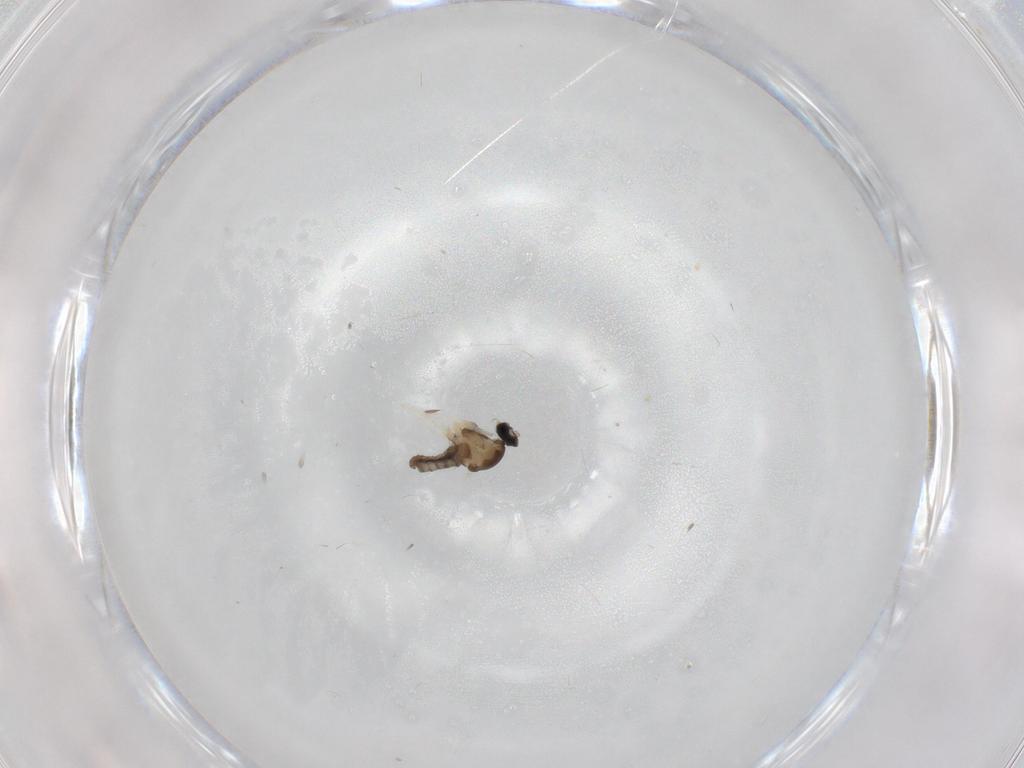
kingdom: Animalia
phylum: Arthropoda
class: Insecta
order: Diptera
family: Cecidomyiidae
